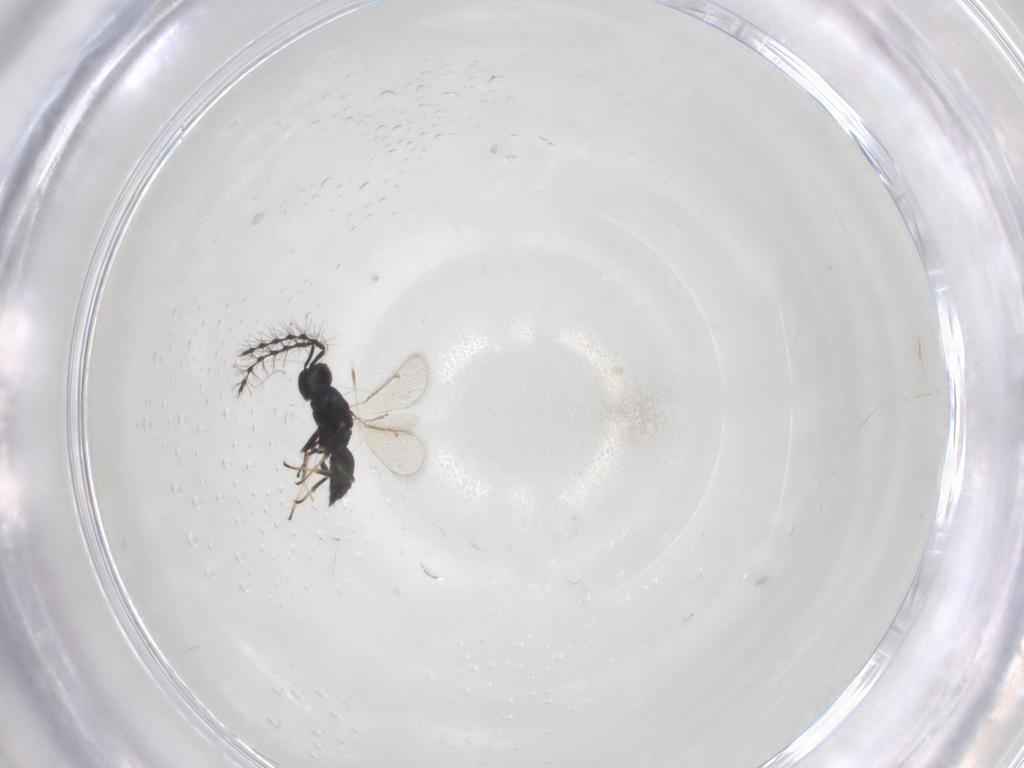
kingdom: Animalia
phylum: Arthropoda
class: Insecta
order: Hymenoptera
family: Eulophidae
